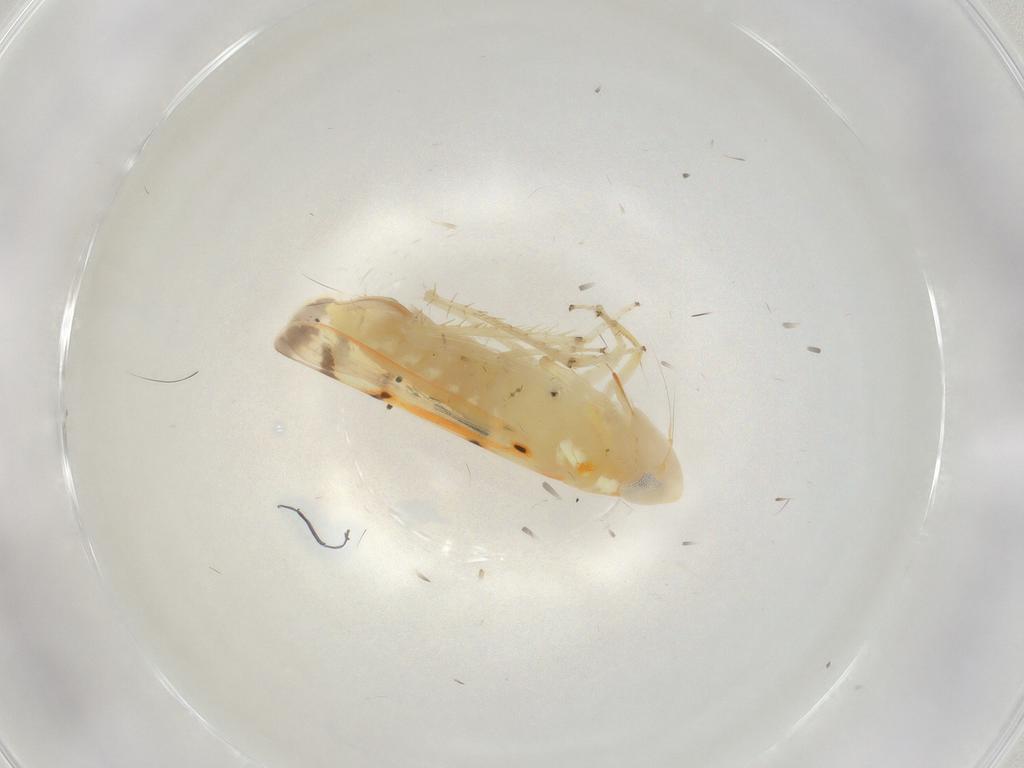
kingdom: Animalia
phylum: Arthropoda
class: Insecta
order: Hemiptera
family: Cicadellidae
